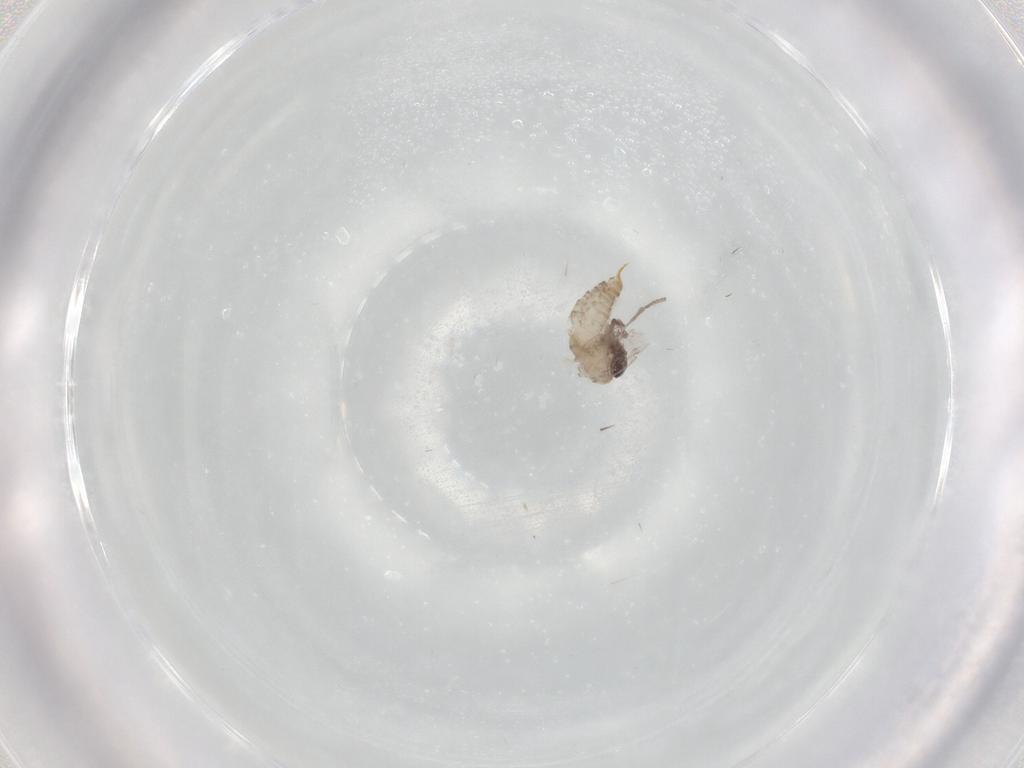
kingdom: Animalia
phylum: Arthropoda
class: Insecta
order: Diptera
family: Psychodidae
